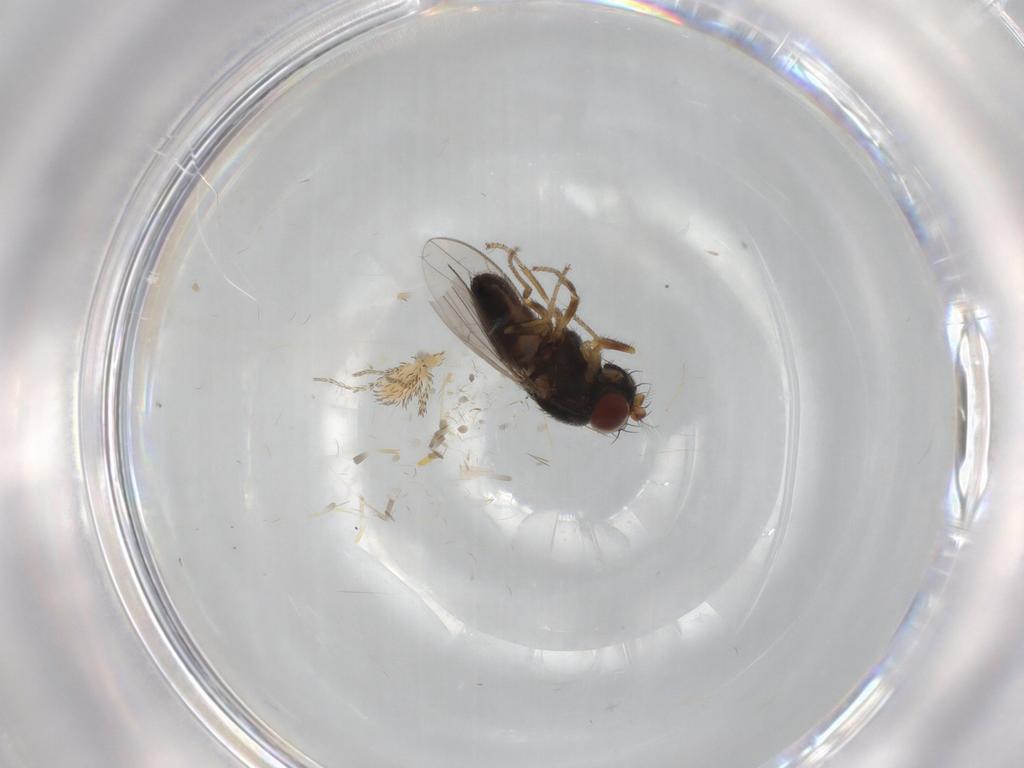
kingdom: Animalia
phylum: Arthropoda
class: Insecta
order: Diptera
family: Ephydridae
